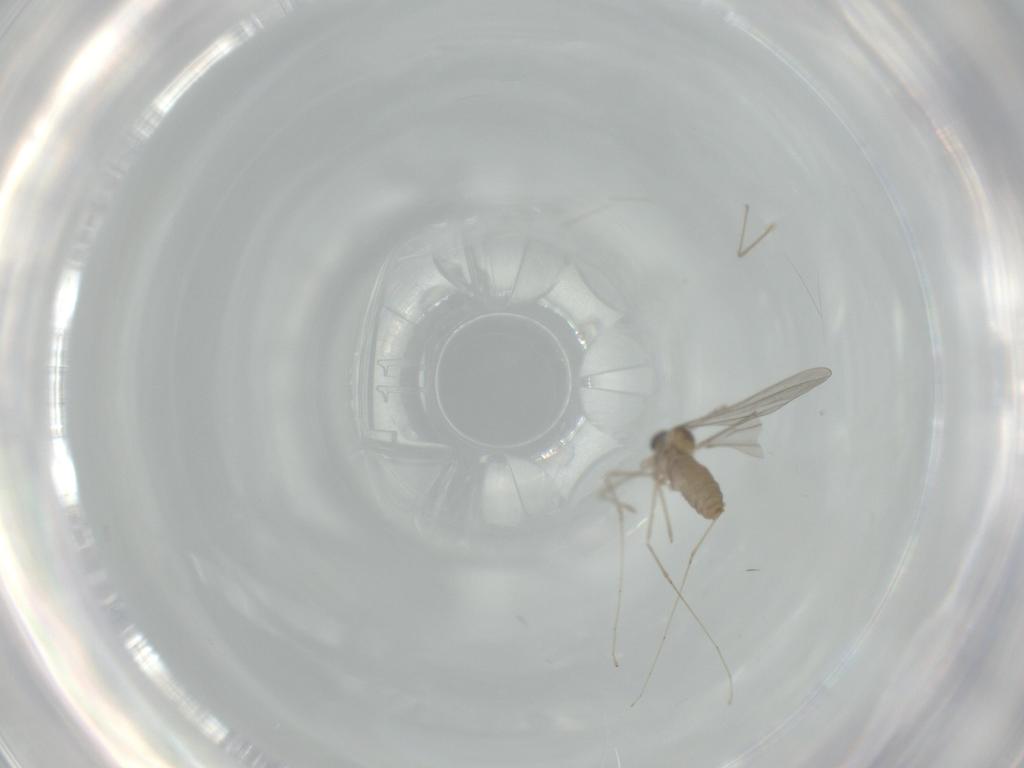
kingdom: Animalia
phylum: Arthropoda
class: Insecta
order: Diptera
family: Cecidomyiidae
